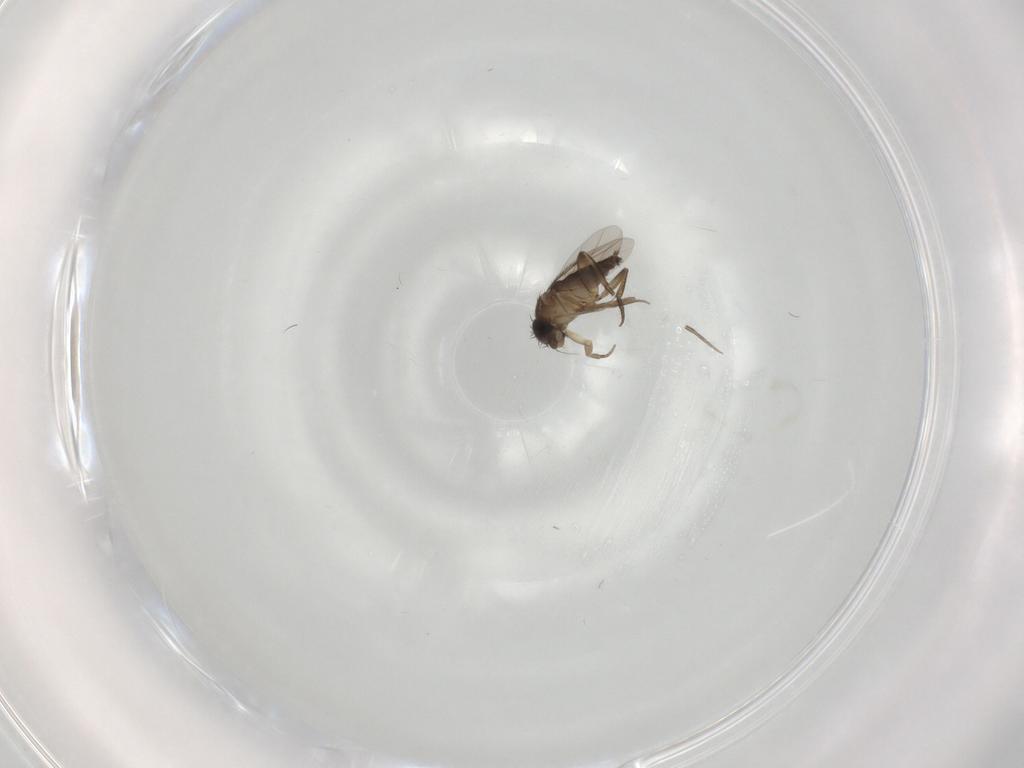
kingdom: Animalia
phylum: Arthropoda
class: Insecta
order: Diptera
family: Phoridae
